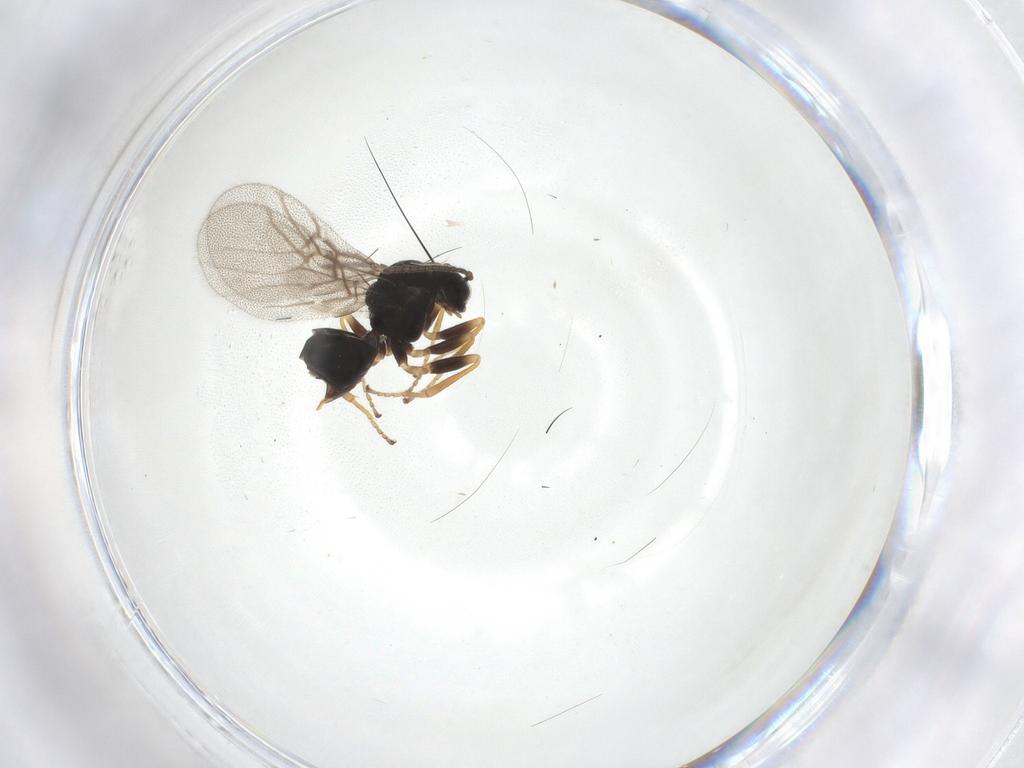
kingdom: Animalia
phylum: Arthropoda
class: Insecta
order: Hymenoptera
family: Cynipidae
